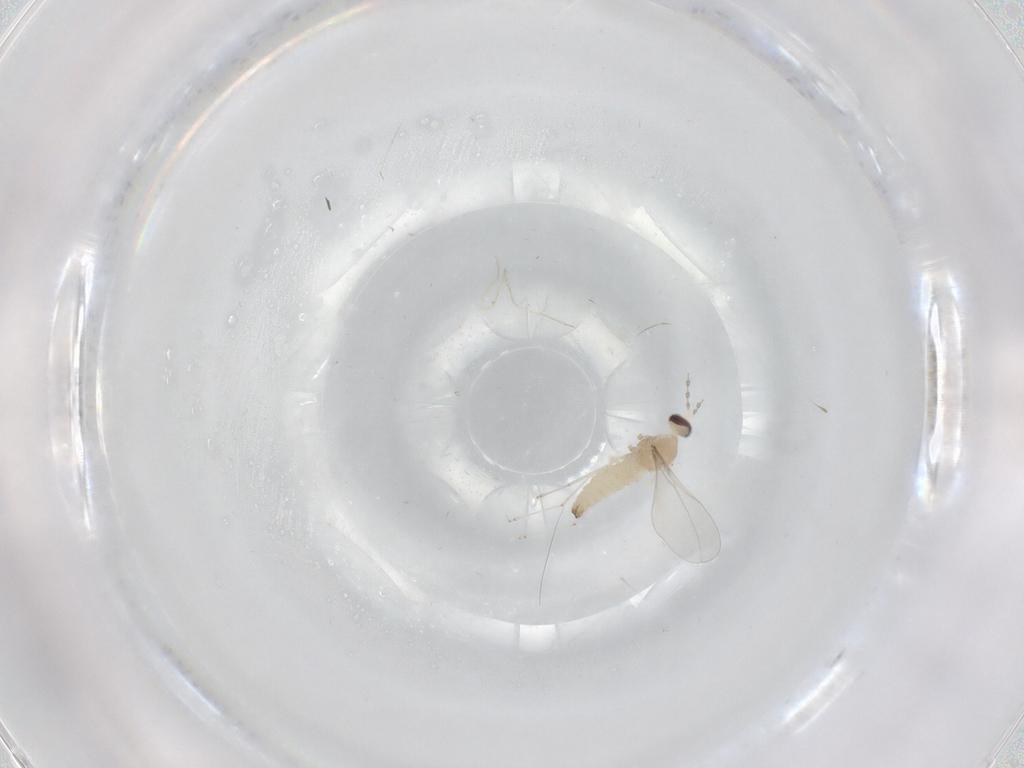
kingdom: Animalia
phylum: Arthropoda
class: Insecta
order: Diptera
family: Cecidomyiidae
